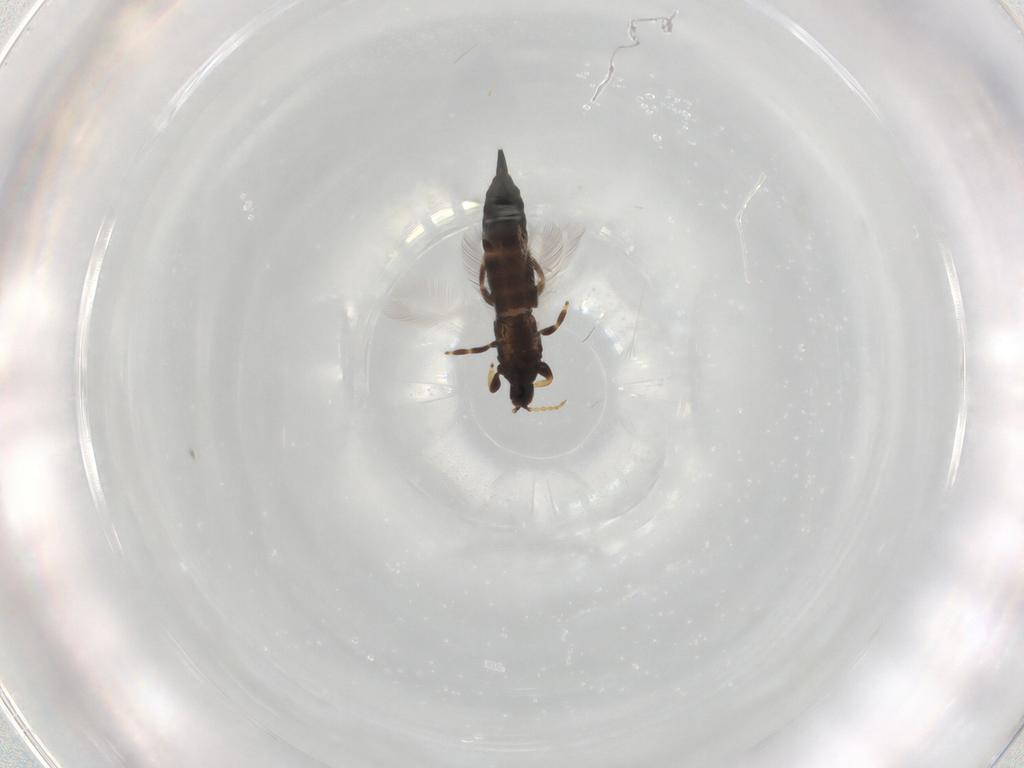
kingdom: Animalia
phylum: Arthropoda
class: Insecta
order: Thysanoptera
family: Phlaeothripidae
